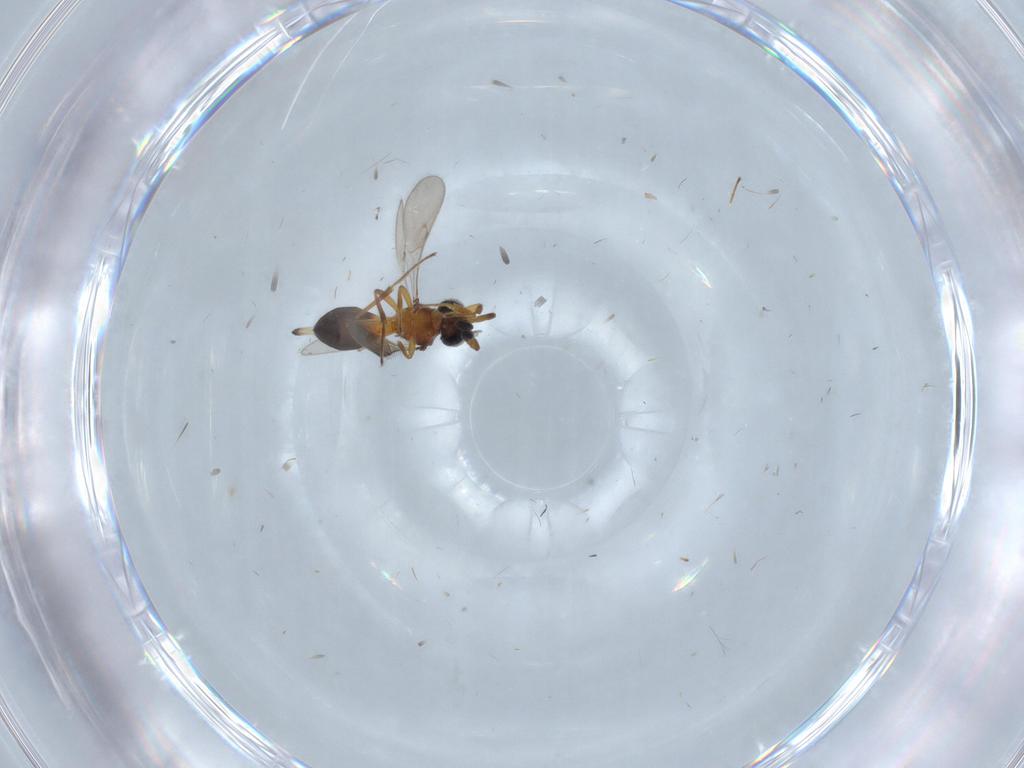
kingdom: Animalia
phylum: Arthropoda
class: Insecta
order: Hymenoptera
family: Scelionidae
